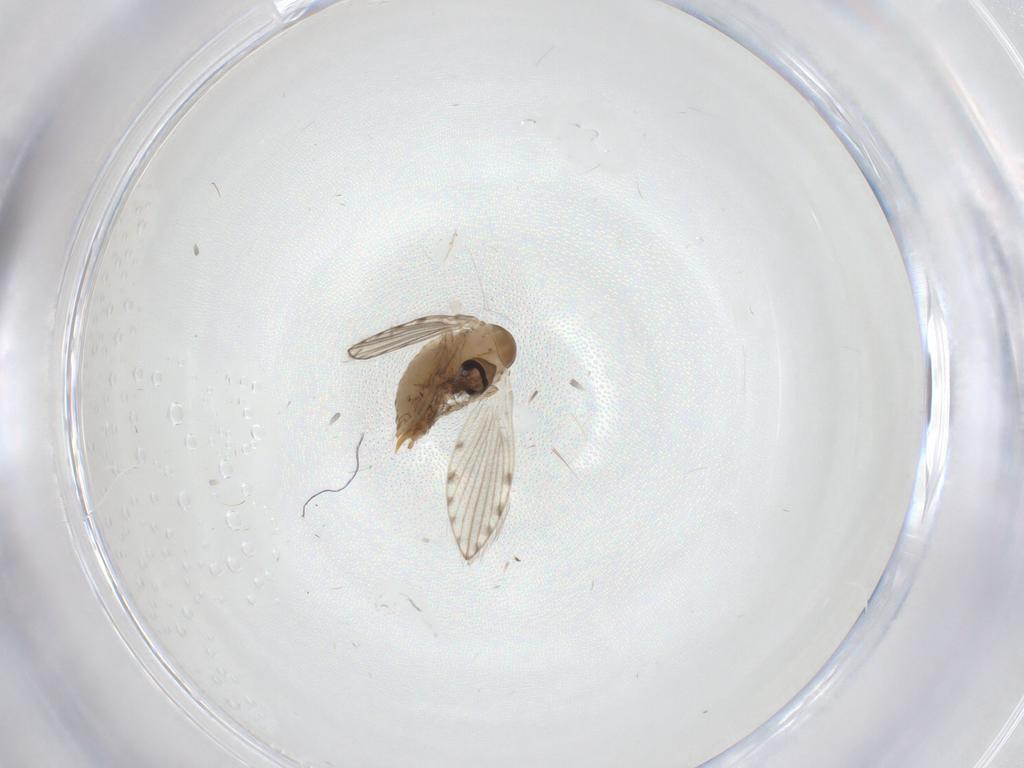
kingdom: Animalia
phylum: Arthropoda
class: Insecta
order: Diptera
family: Psychodidae
